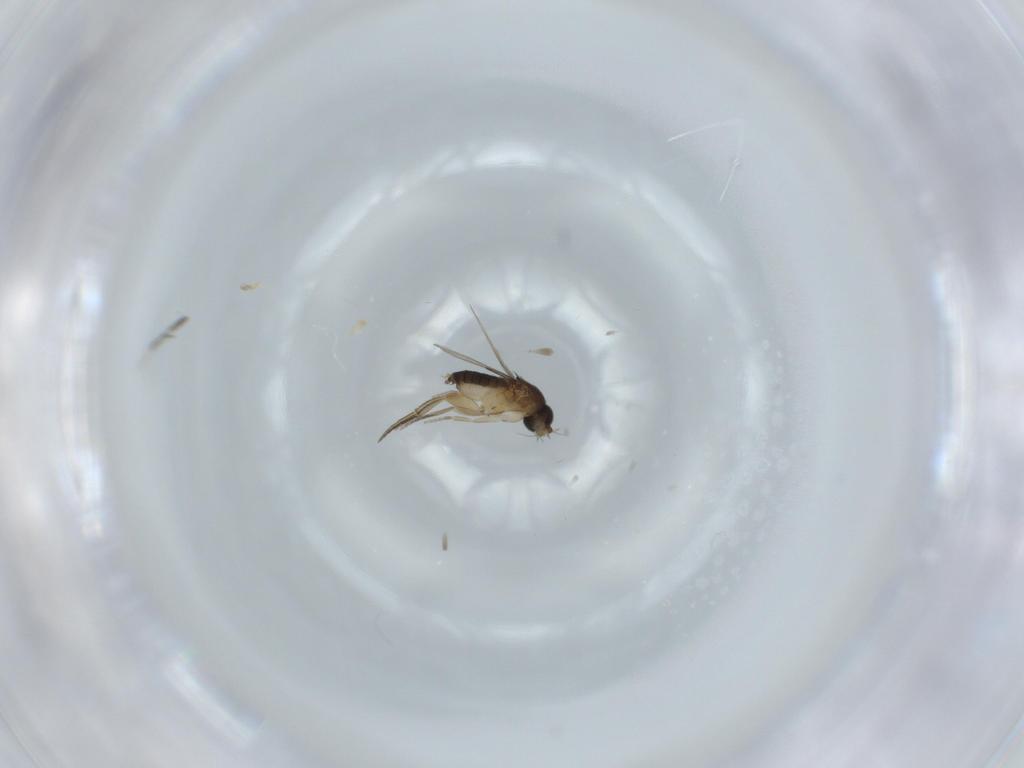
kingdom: Animalia
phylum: Arthropoda
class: Insecta
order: Diptera
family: Phoridae
